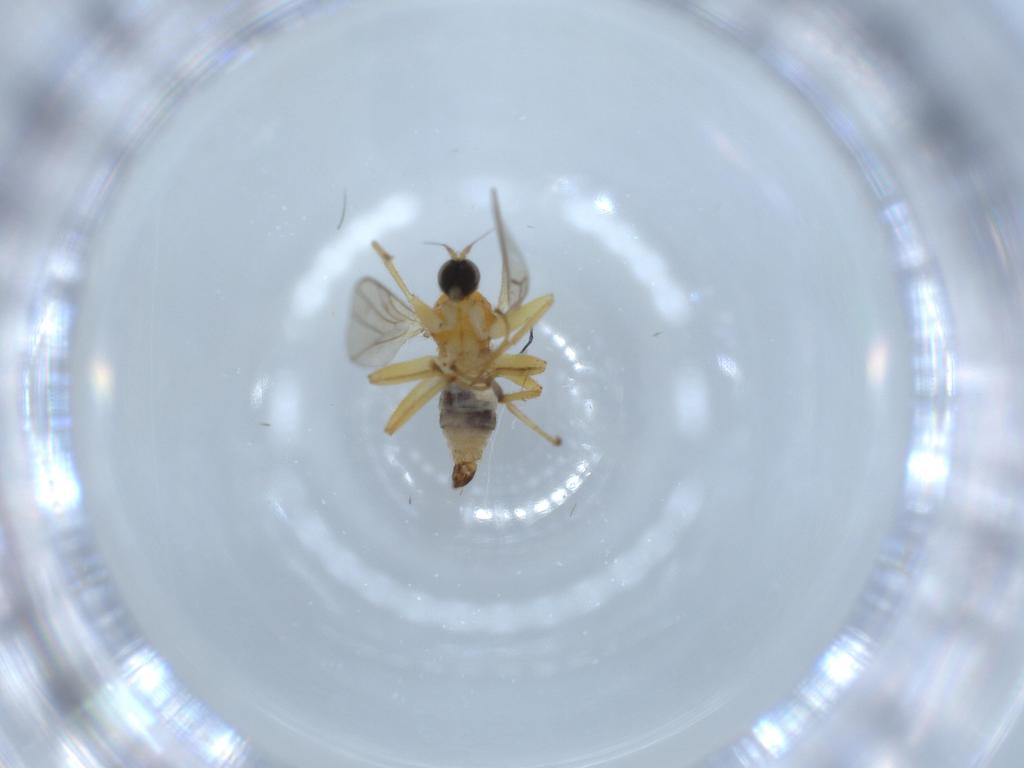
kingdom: Animalia
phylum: Arthropoda
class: Insecta
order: Diptera
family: Hybotidae
